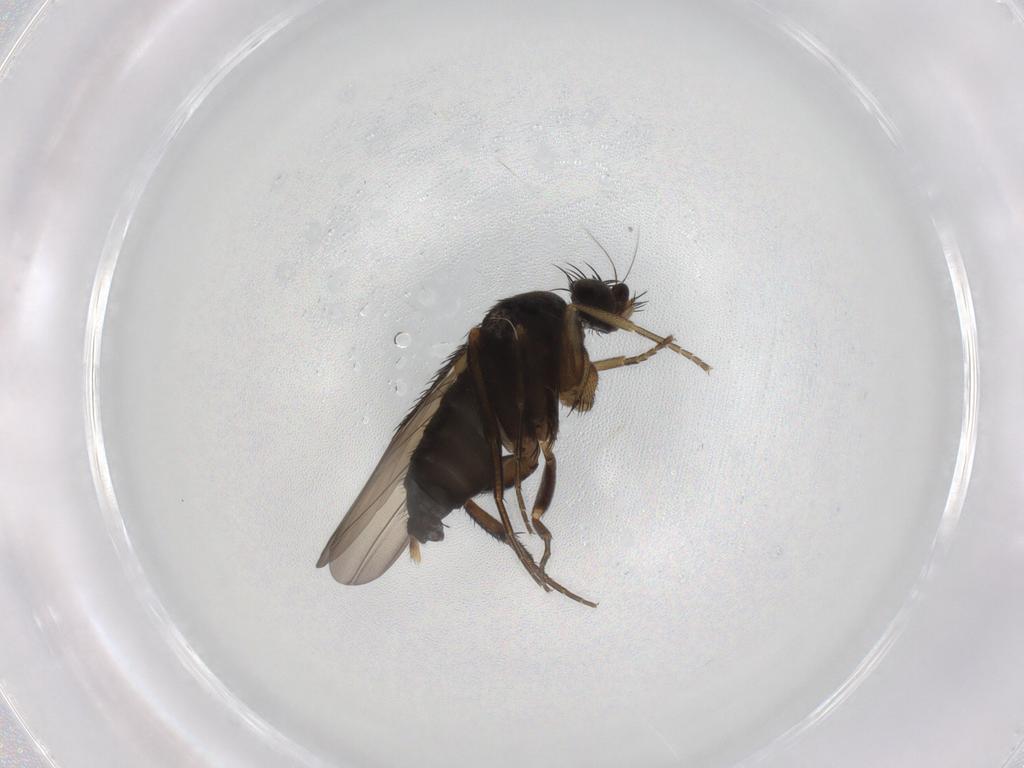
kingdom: Animalia
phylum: Arthropoda
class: Insecta
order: Diptera
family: Phoridae
